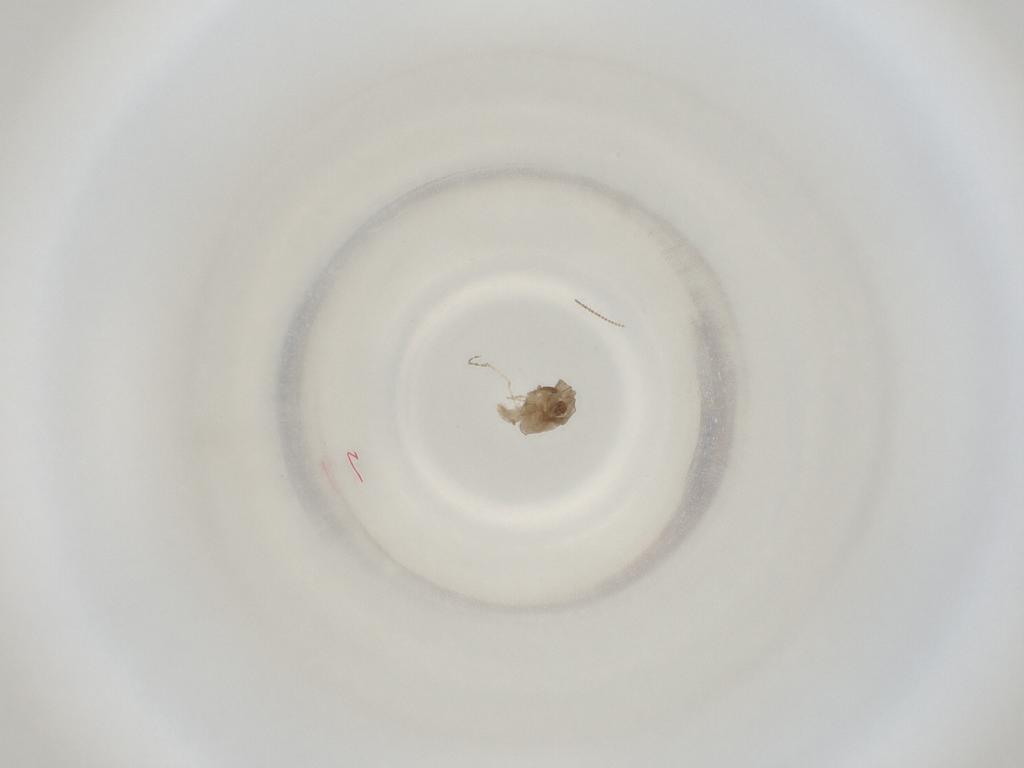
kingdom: Animalia
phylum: Arthropoda
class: Insecta
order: Diptera
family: Cecidomyiidae
